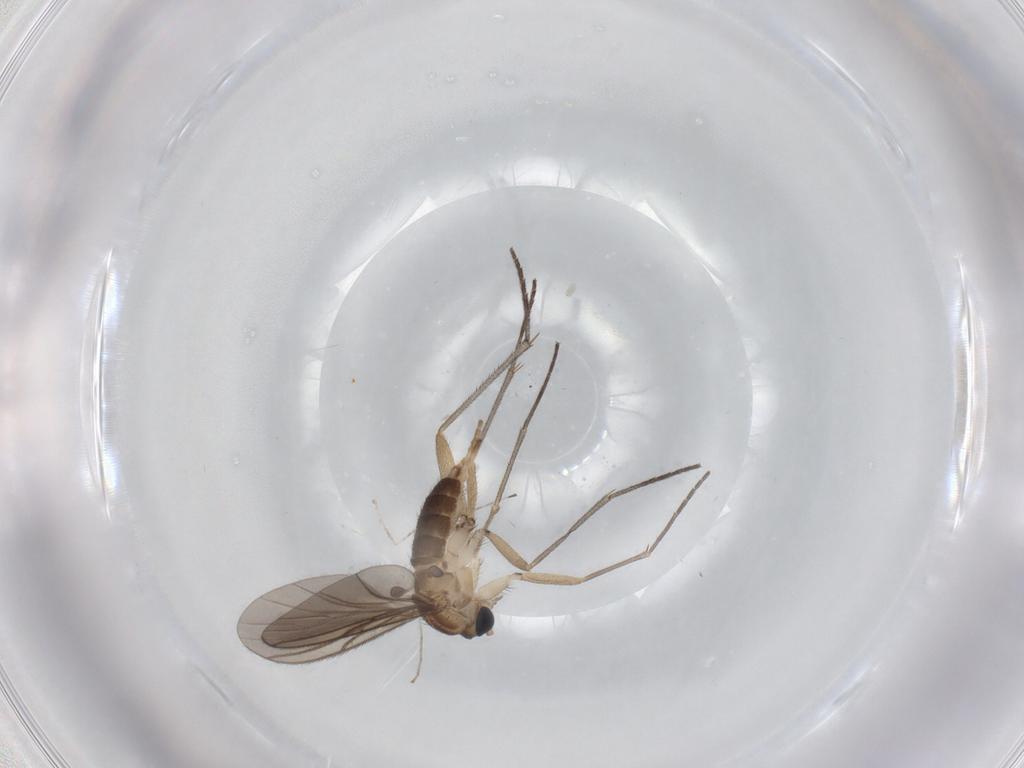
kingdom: Animalia
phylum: Arthropoda
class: Insecta
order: Diptera
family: Sciaridae
